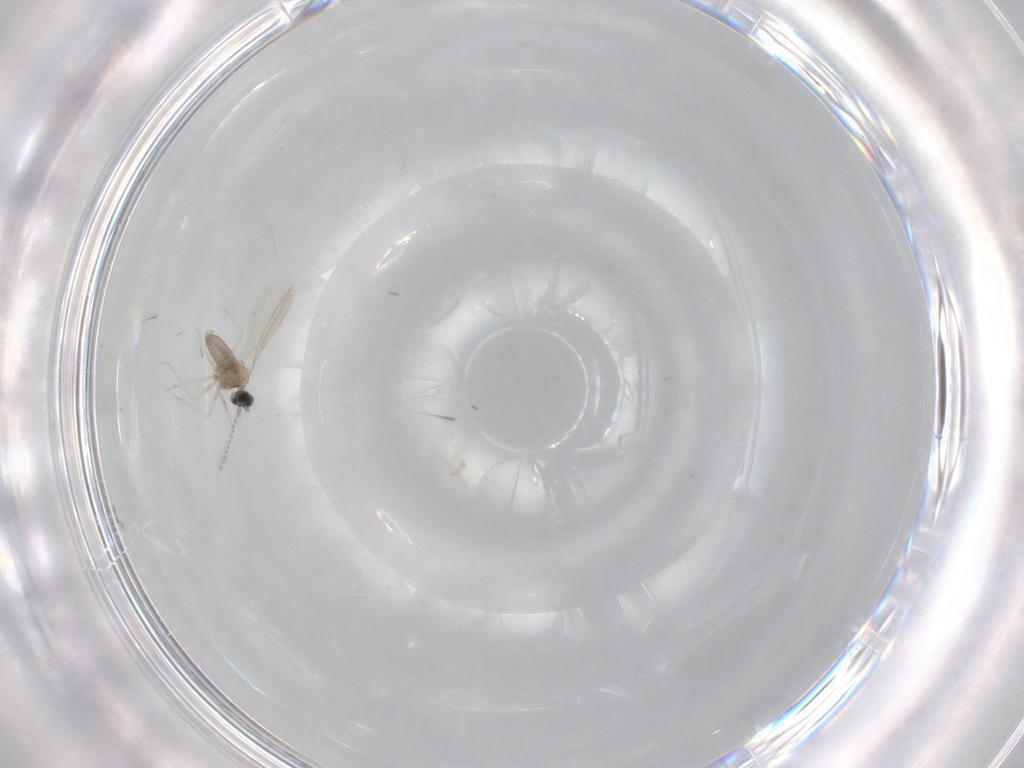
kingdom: Animalia
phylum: Arthropoda
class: Insecta
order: Diptera
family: Cecidomyiidae
